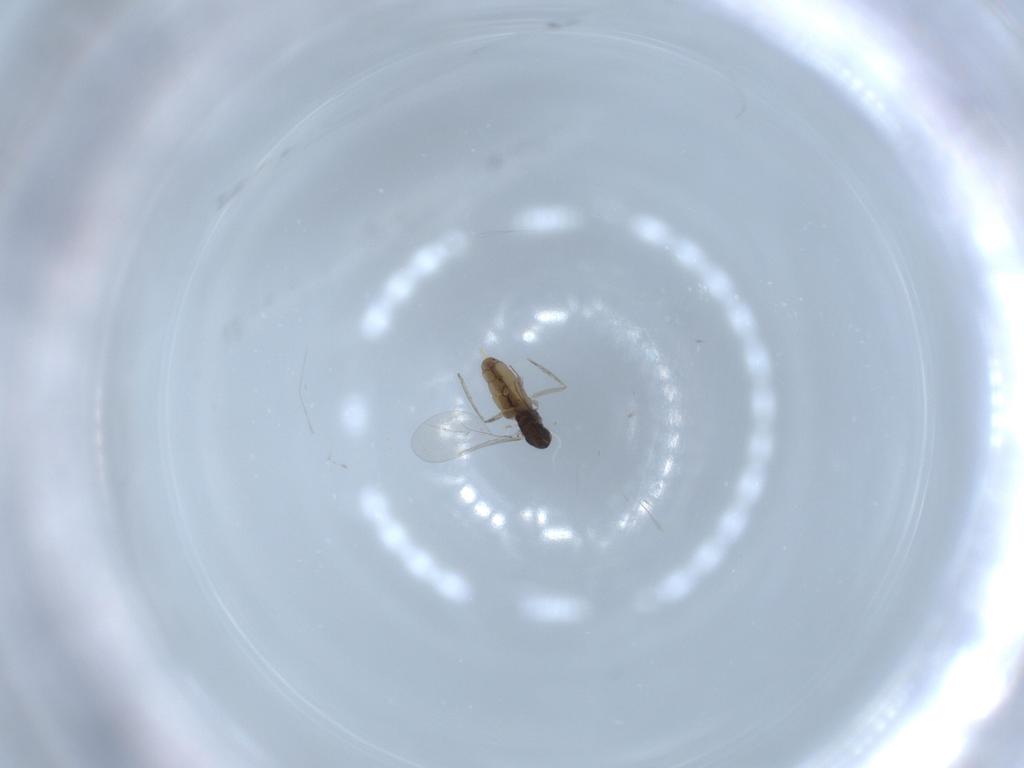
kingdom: Animalia
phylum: Arthropoda
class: Insecta
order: Diptera
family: Cecidomyiidae
